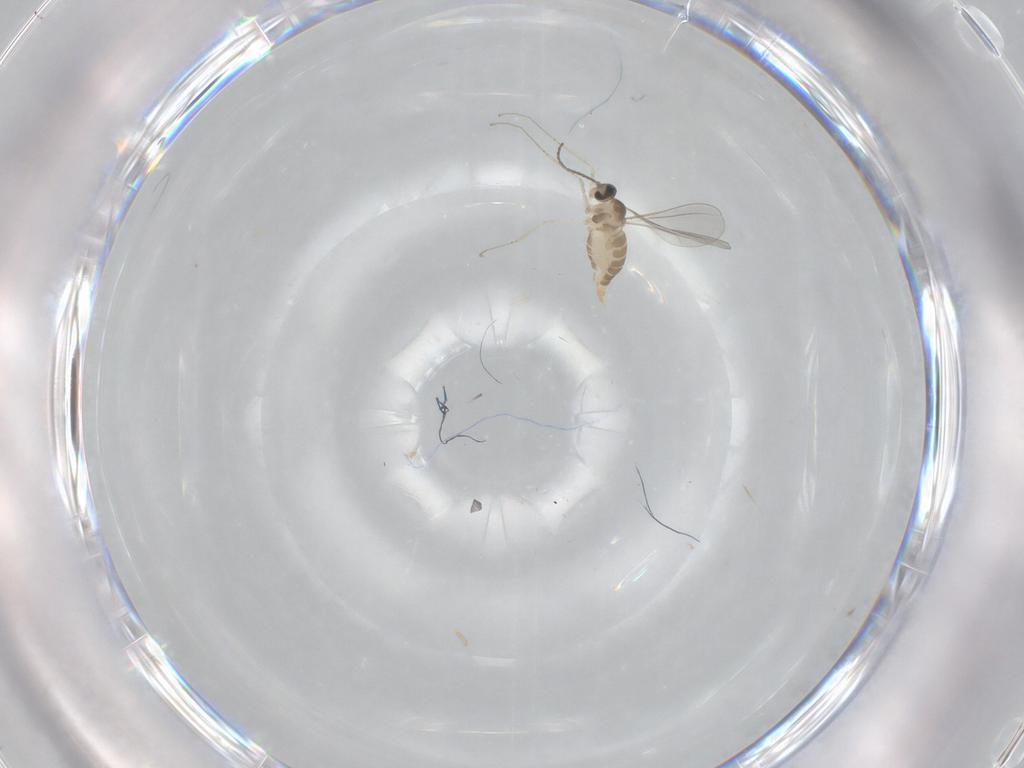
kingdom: Animalia
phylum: Arthropoda
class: Insecta
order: Diptera
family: Cecidomyiidae
